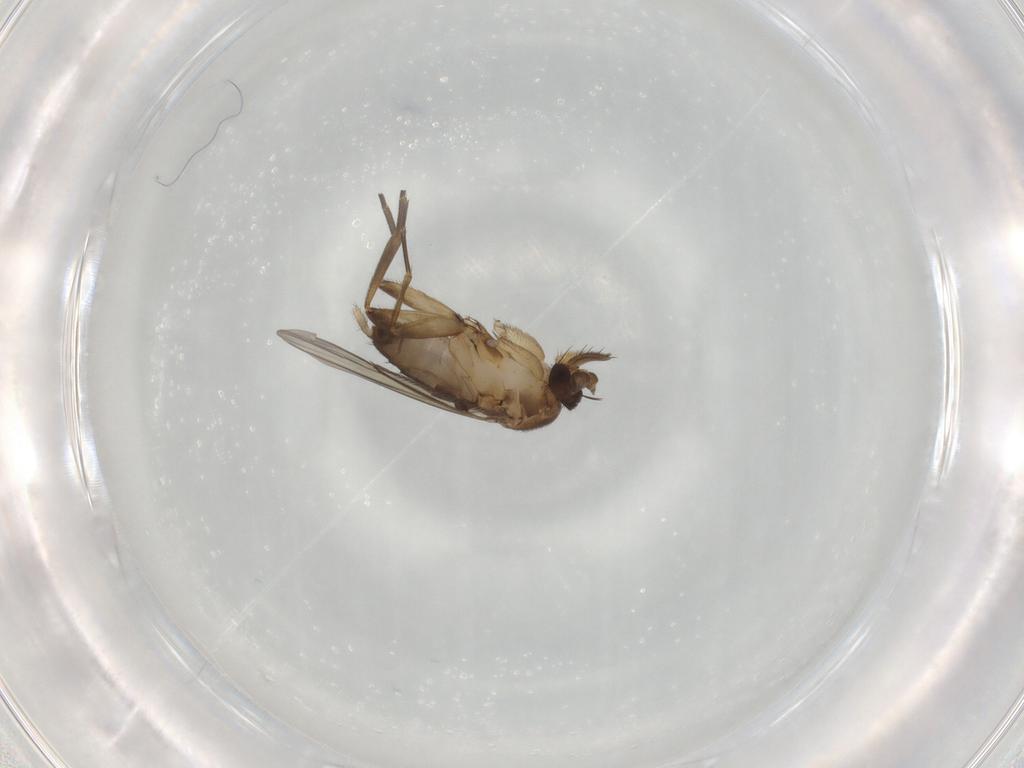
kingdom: Animalia
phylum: Arthropoda
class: Insecta
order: Diptera
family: Phoridae
